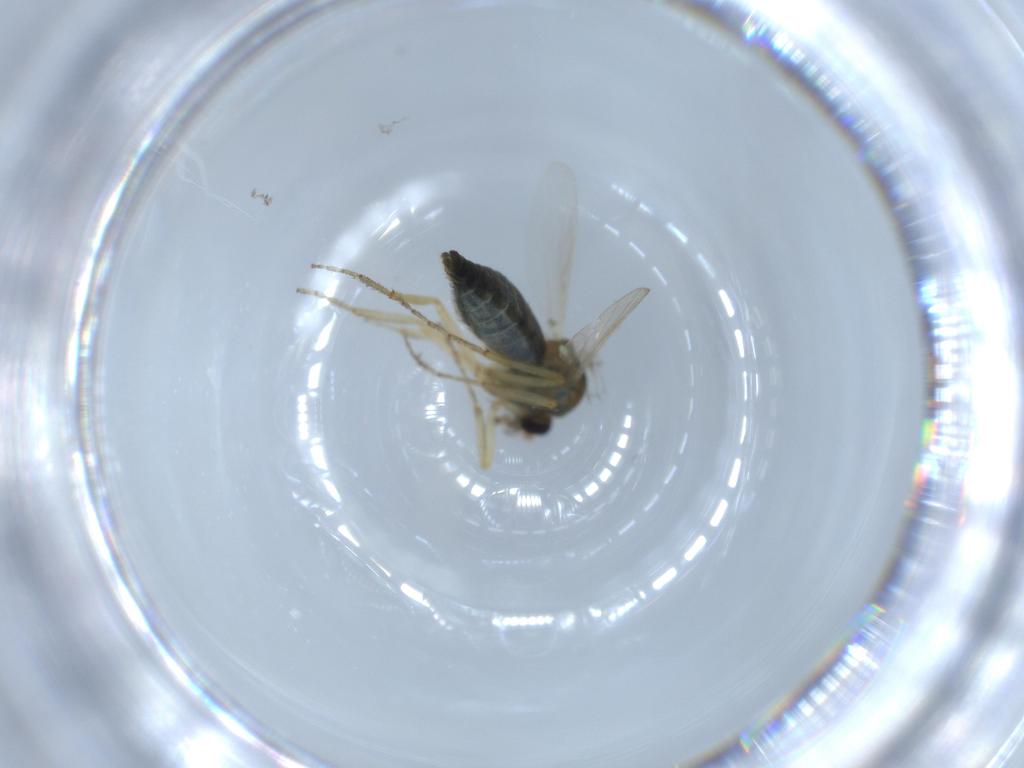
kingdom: Animalia
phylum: Arthropoda
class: Insecta
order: Diptera
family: Ceratopogonidae
